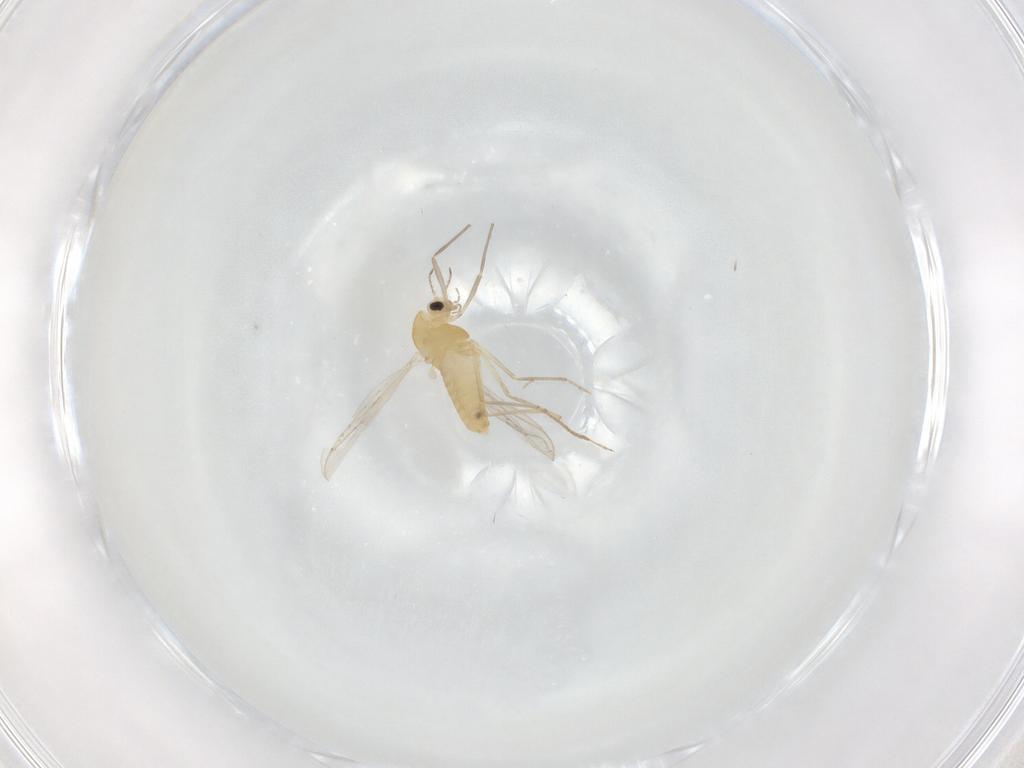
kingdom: Animalia
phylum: Arthropoda
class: Insecta
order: Diptera
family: Chironomidae
